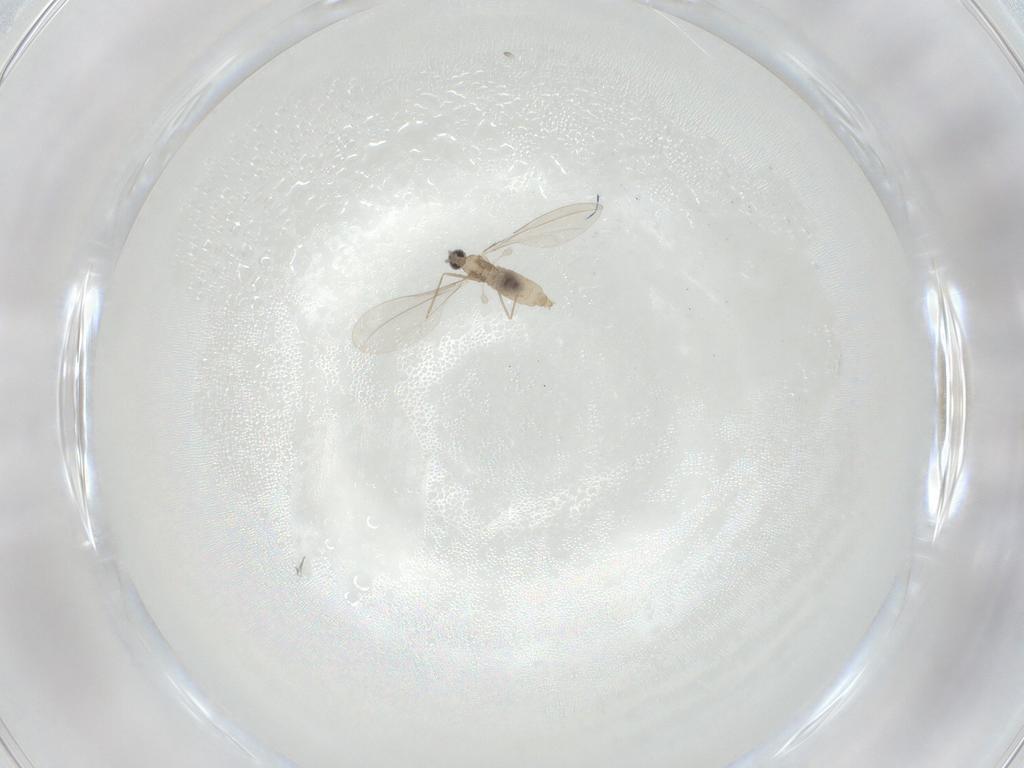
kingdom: Animalia
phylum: Arthropoda
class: Insecta
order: Diptera
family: Cecidomyiidae
